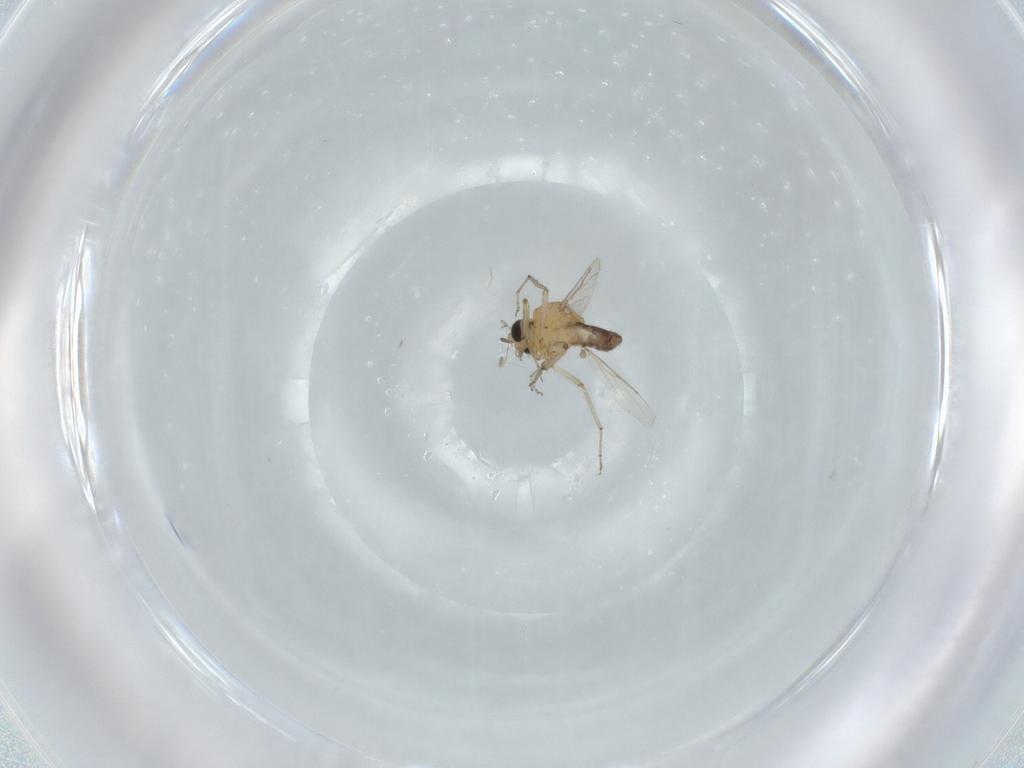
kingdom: Animalia
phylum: Arthropoda
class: Insecta
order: Diptera
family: Ceratopogonidae
